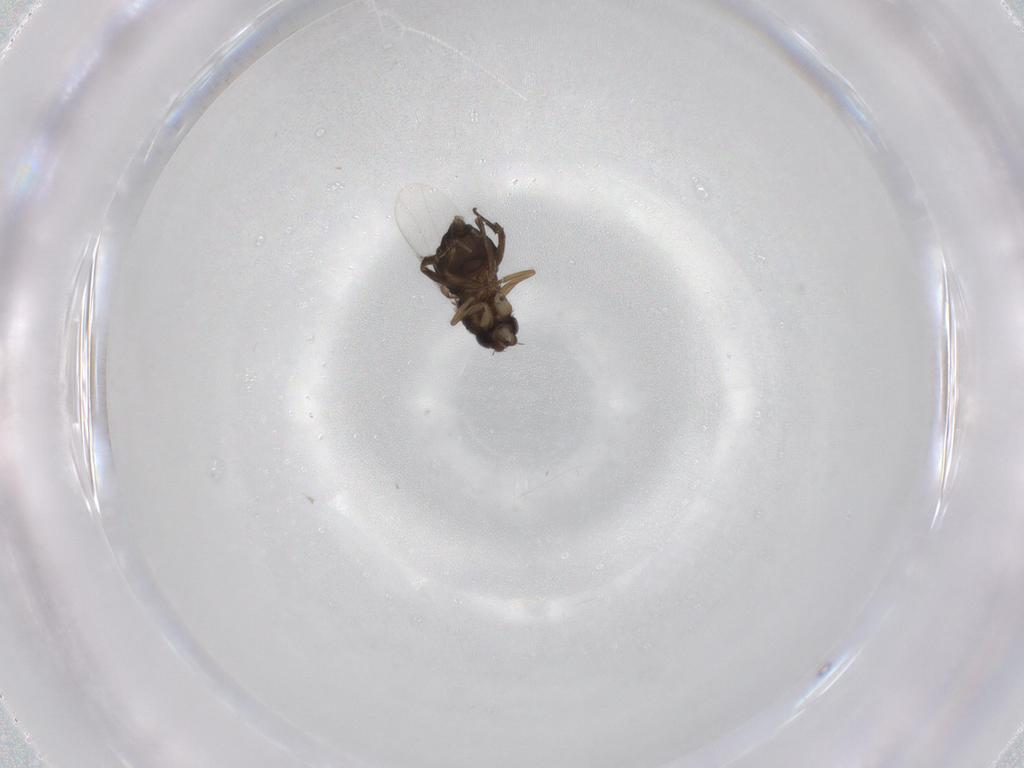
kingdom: Animalia
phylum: Arthropoda
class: Insecta
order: Diptera
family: Phoridae
